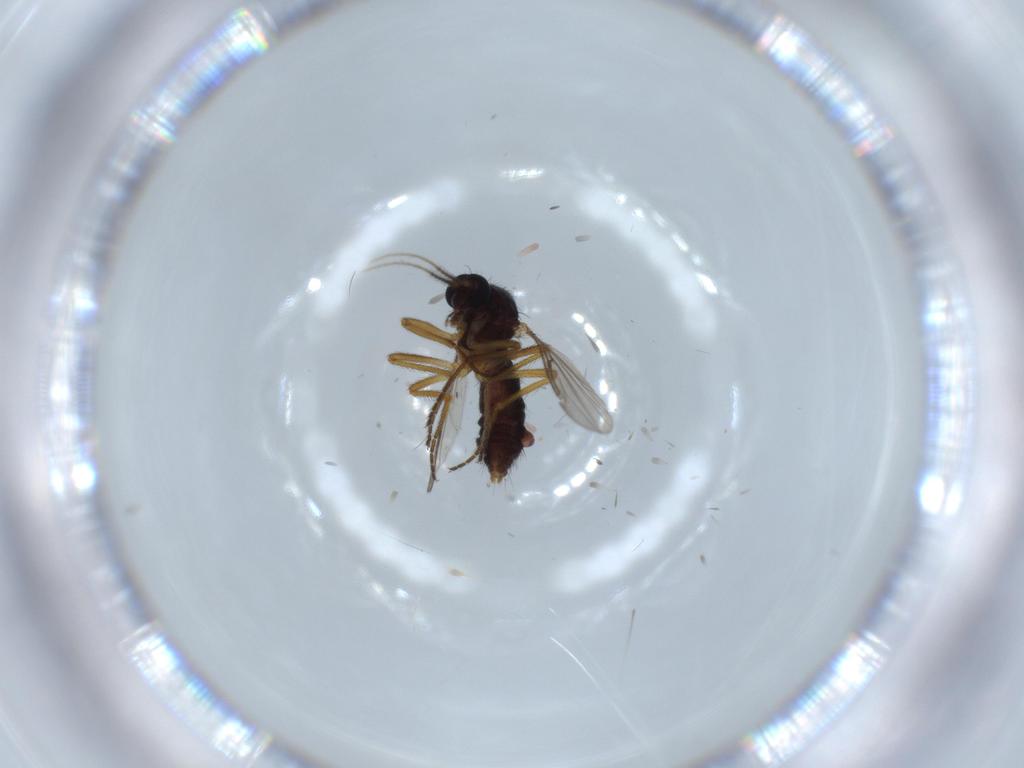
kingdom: Animalia
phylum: Arthropoda
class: Insecta
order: Diptera
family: Ceratopogonidae
